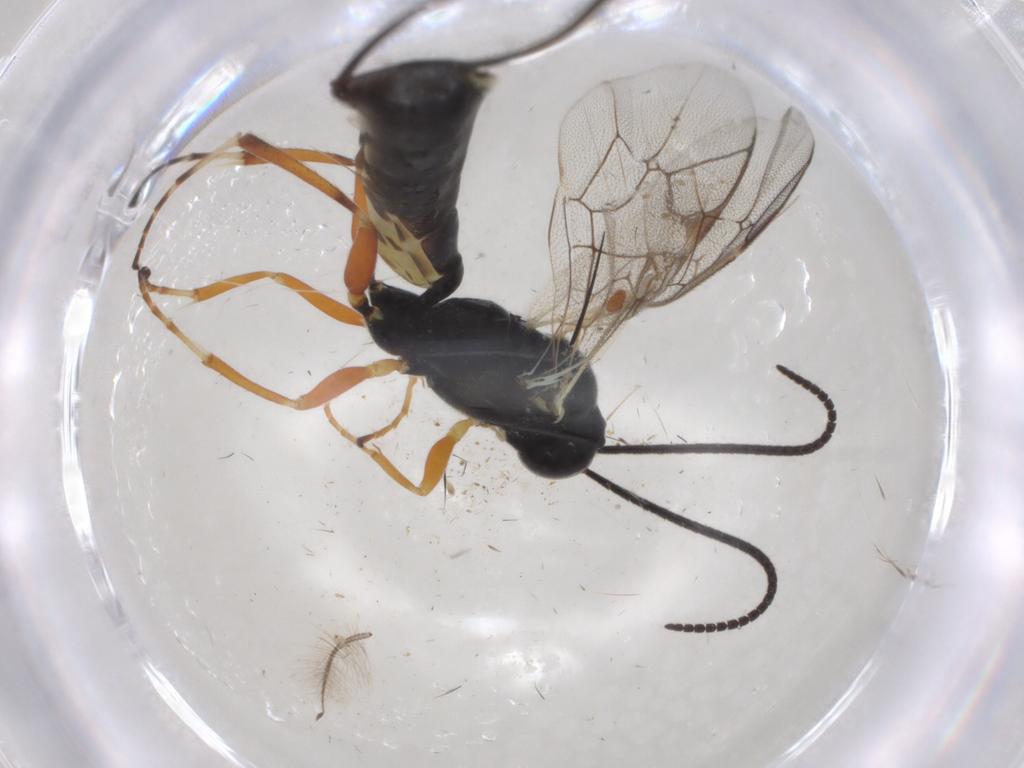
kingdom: Animalia
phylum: Arthropoda
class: Insecta
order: Hymenoptera
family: Ichneumonidae
